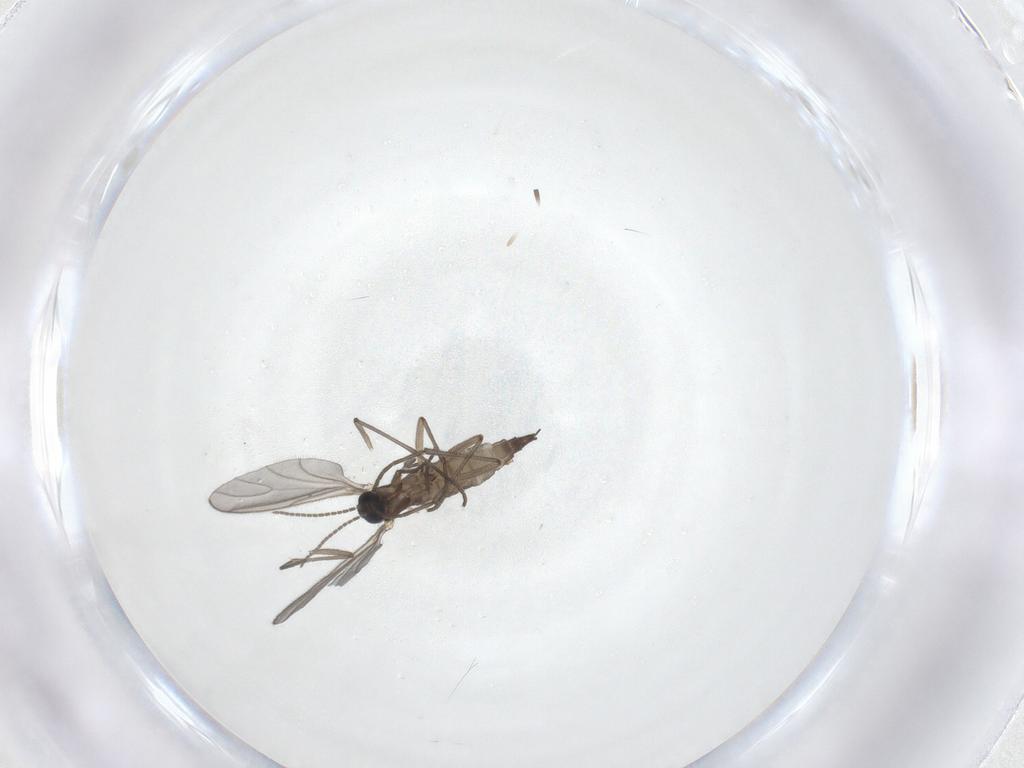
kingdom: Animalia
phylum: Arthropoda
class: Insecta
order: Diptera
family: Sciaridae
